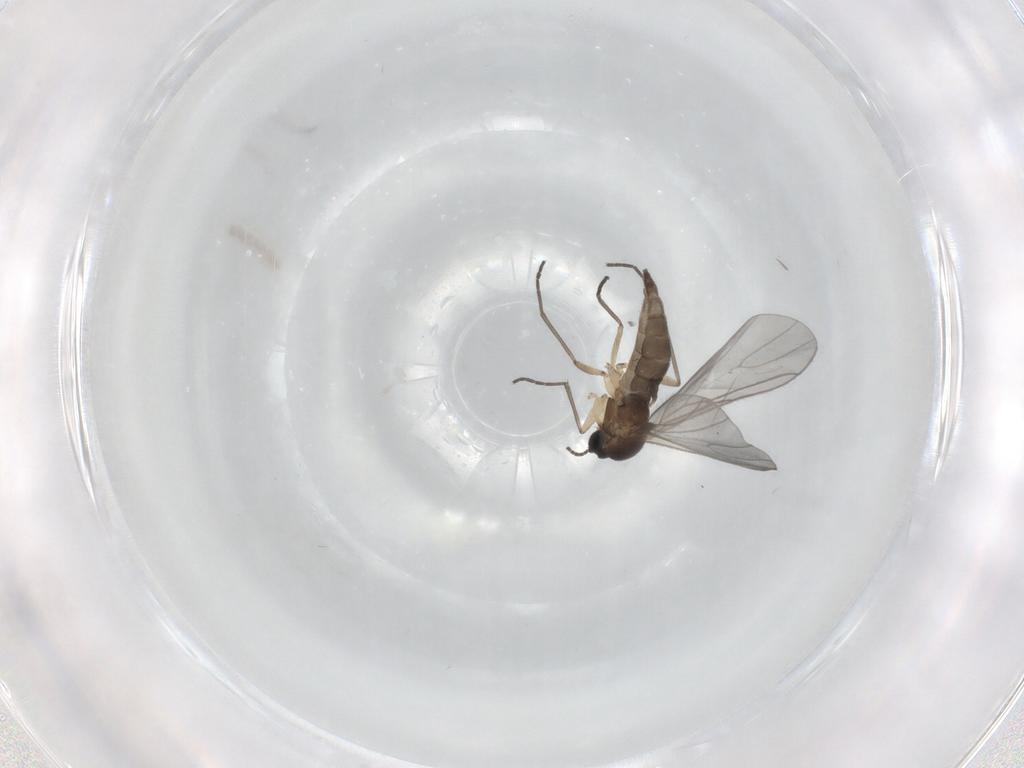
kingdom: Animalia
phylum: Arthropoda
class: Insecta
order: Diptera
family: Sciaridae
